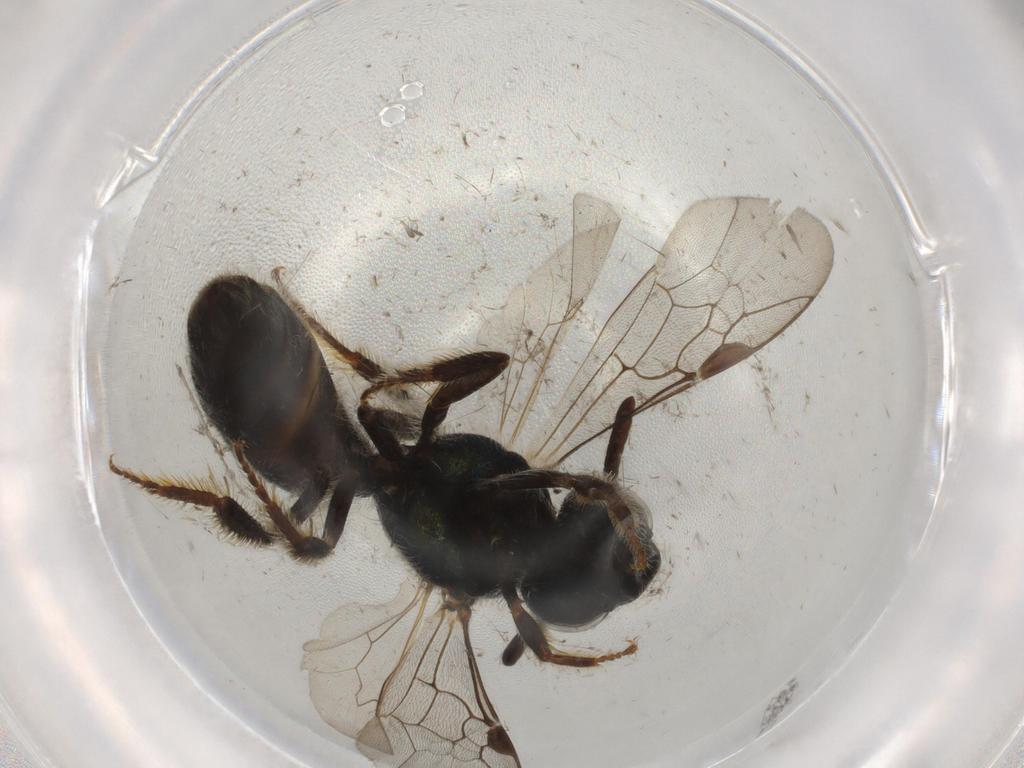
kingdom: Animalia
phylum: Arthropoda
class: Insecta
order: Hymenoptera
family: Halictidae
